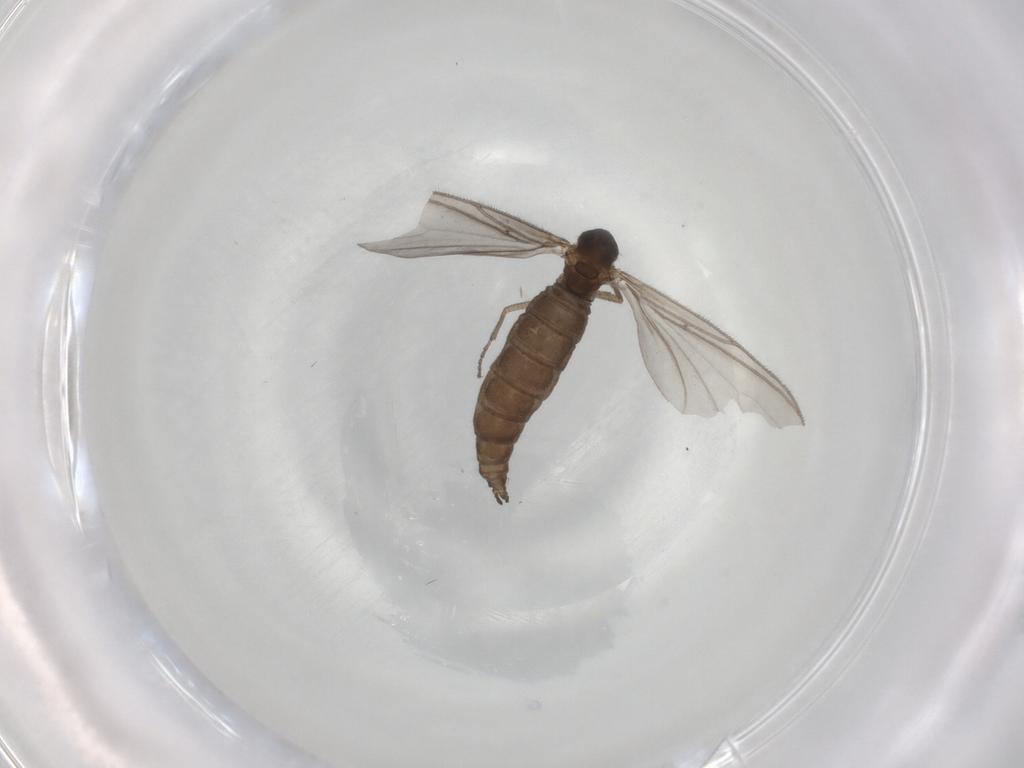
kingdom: Animalia
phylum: Arthropoda
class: Insecta
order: Diptera
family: Sciaridae
